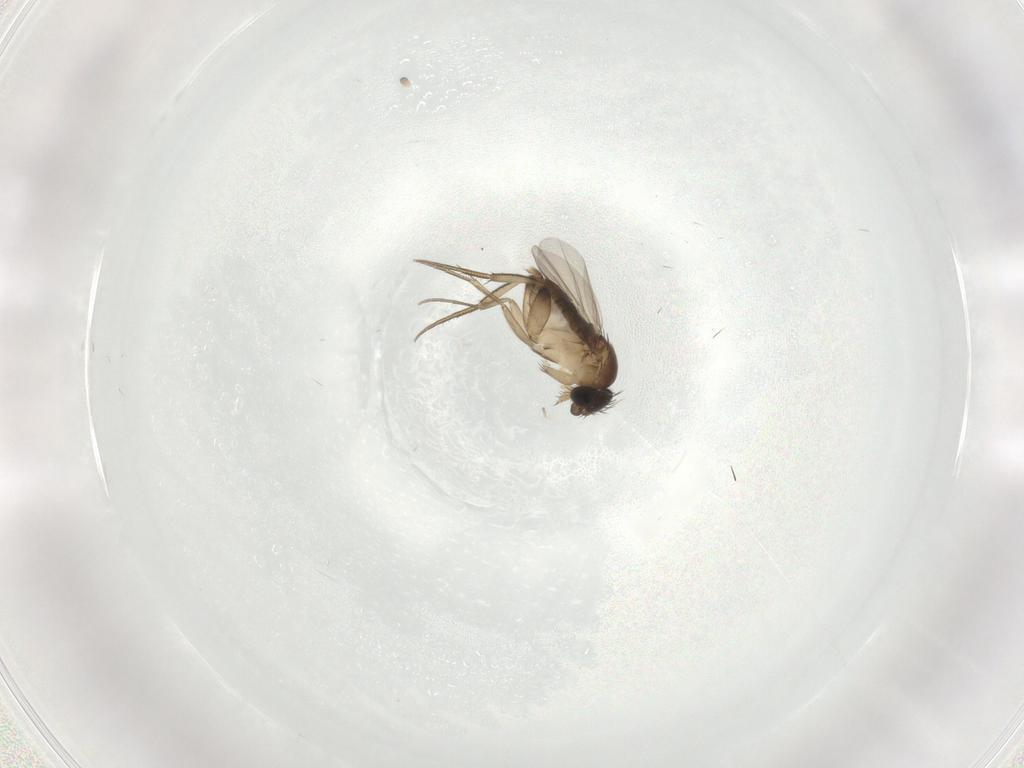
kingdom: Animalia
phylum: Arthropoda
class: Insecta
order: Diptera
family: Phoridae
